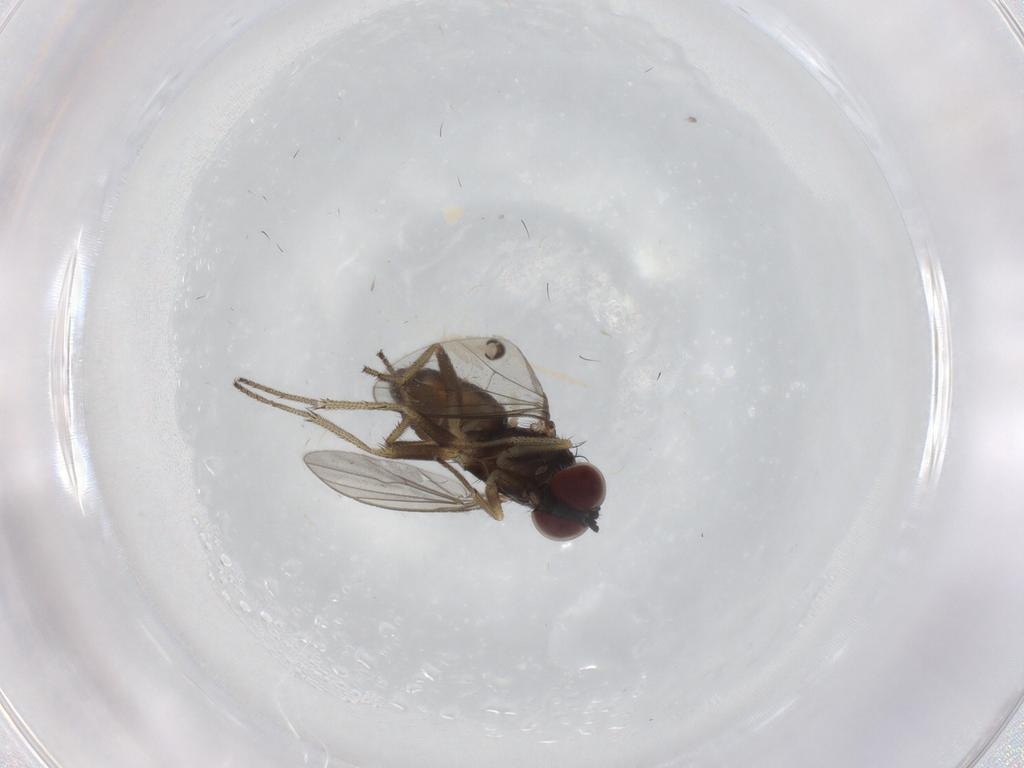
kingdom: Animalia
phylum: Arthropoda
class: Insecta
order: Diptera
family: Cecidomyiidae
